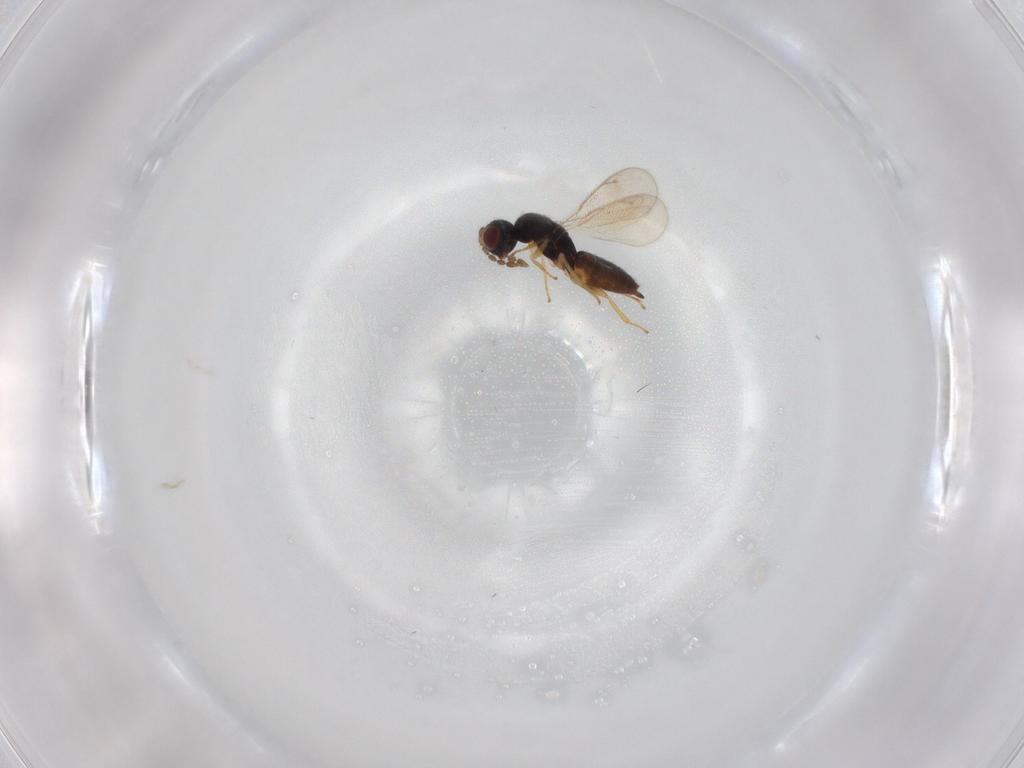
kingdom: Animalia
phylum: Arthropoda
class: Insecta
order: Hymenoptera
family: Eulophidae
